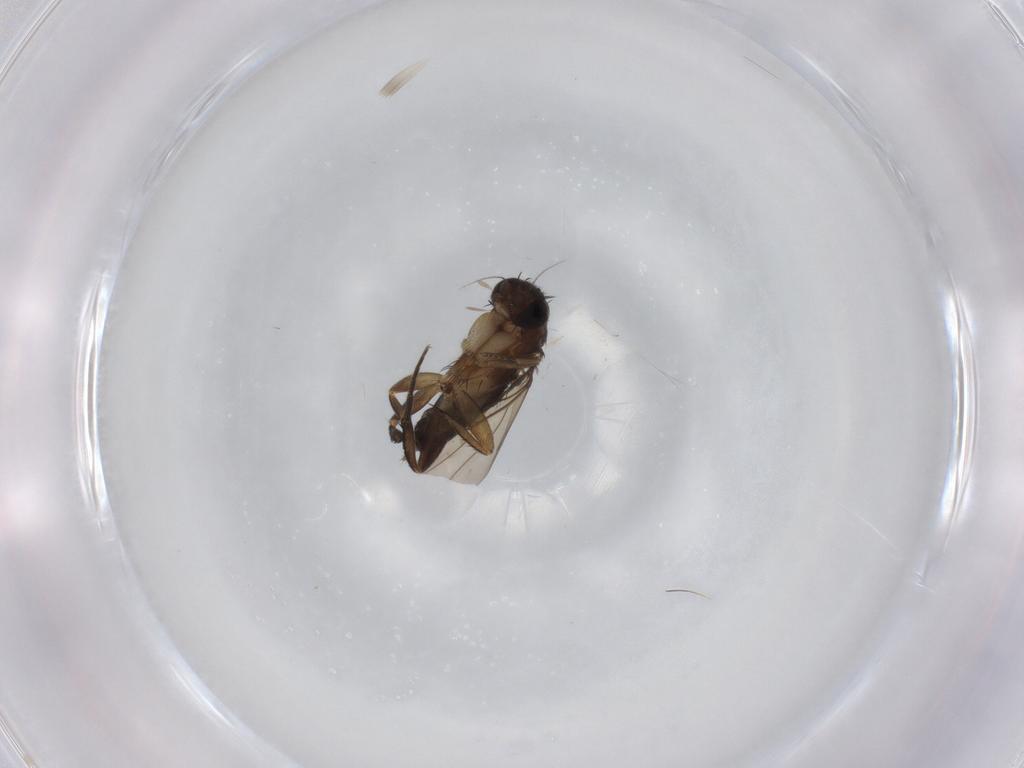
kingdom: Animalia
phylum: Arthropoda
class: Insecta
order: Diptera
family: Phoridae
